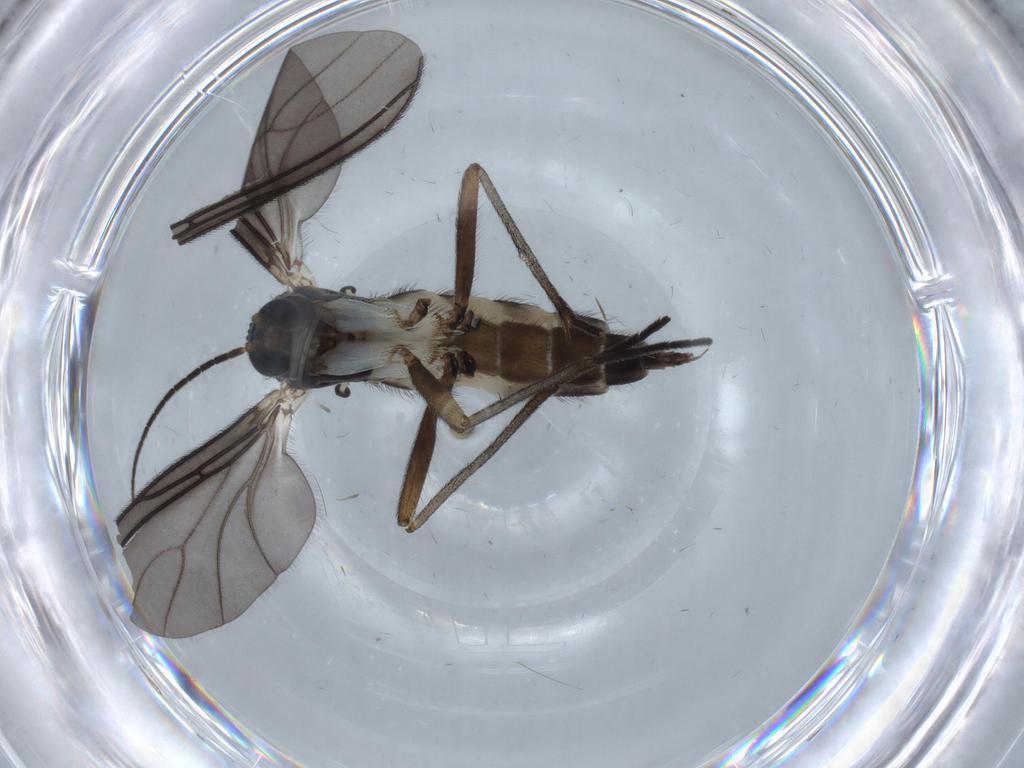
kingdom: Animalia
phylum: Arthropoda
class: Insecta
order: Diptera
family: Sciaridae
